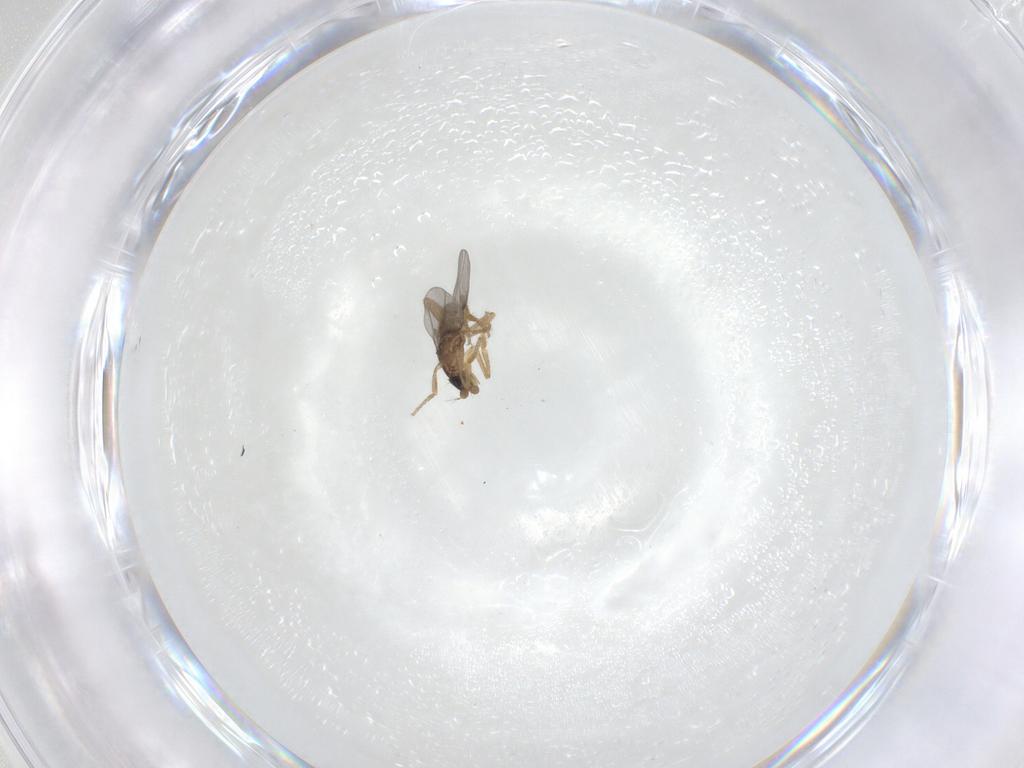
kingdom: Animalia
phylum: Arthropoda
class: Insecta
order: Diptera
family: Phoridae
